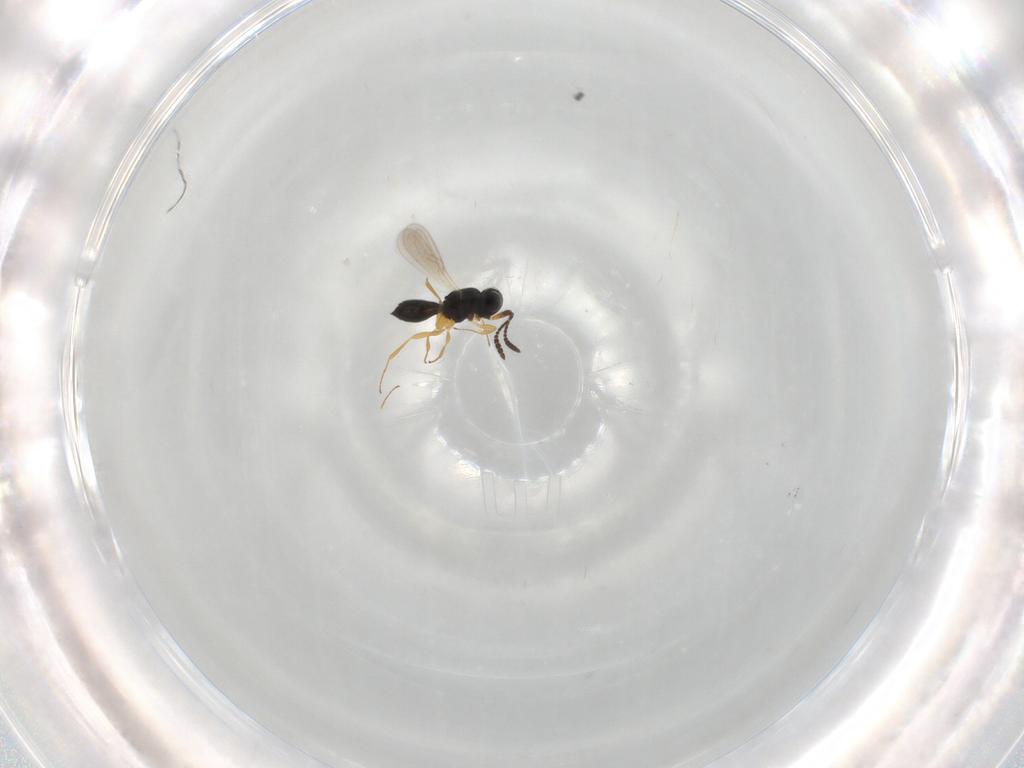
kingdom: Animalia
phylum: Arthropoda
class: Insecta
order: Hymenoptera
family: Scelionidae
